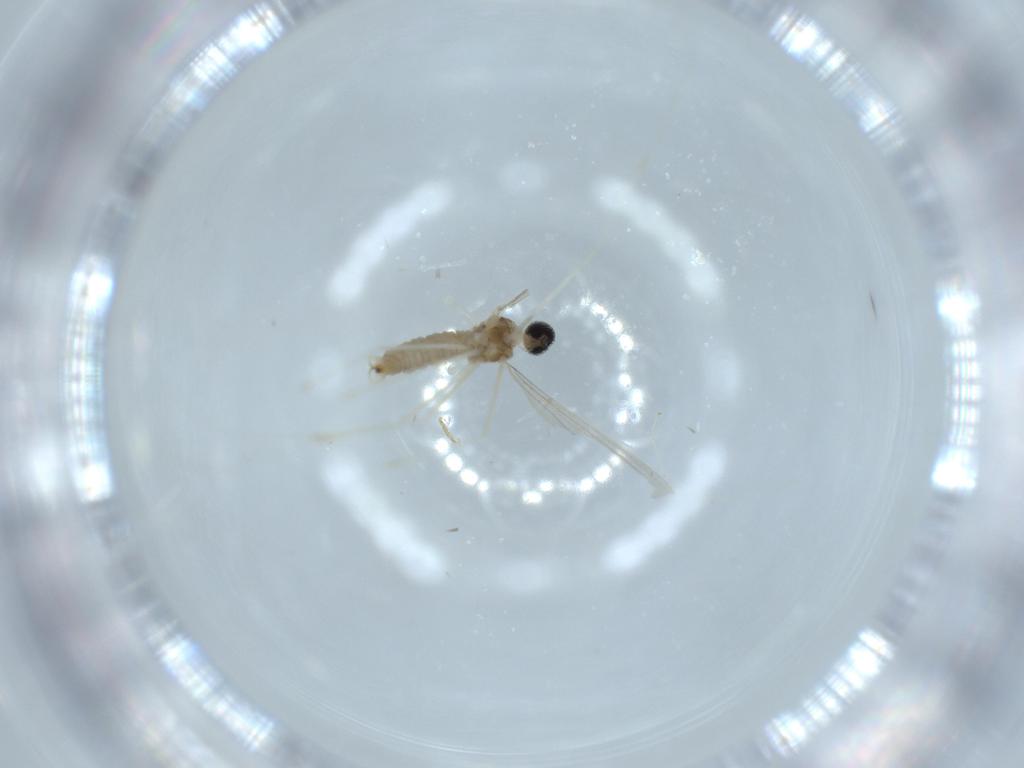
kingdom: Animalia
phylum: Arthropoda
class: Insecta
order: Diptera
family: Cecidomyiidae
